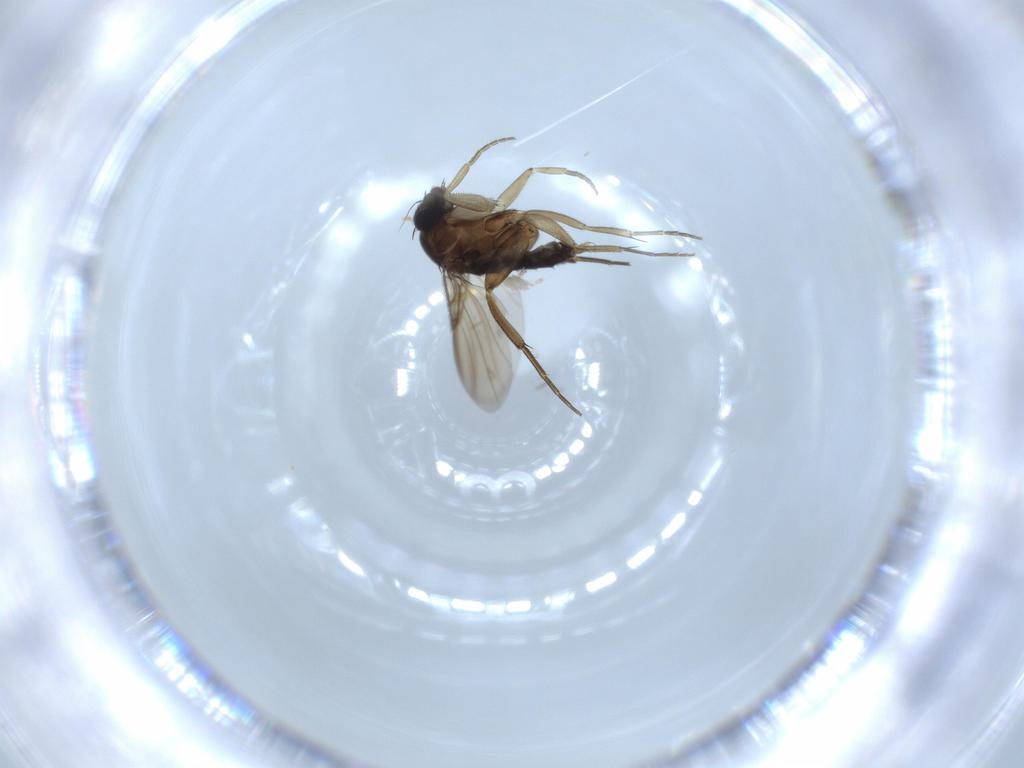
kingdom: Animalia
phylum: Arthropoda
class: Insecta
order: Diptera
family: Phoridae
